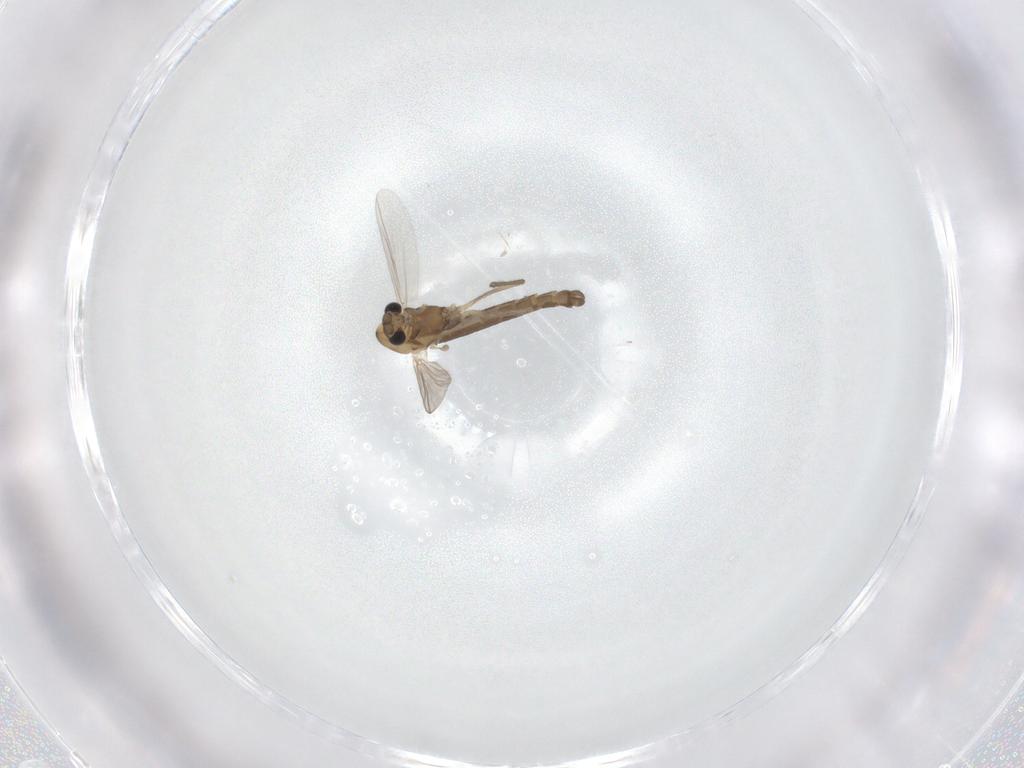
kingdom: Animalia
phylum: Arthropoda
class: Insecta
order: Diptera
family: Chironomidae
